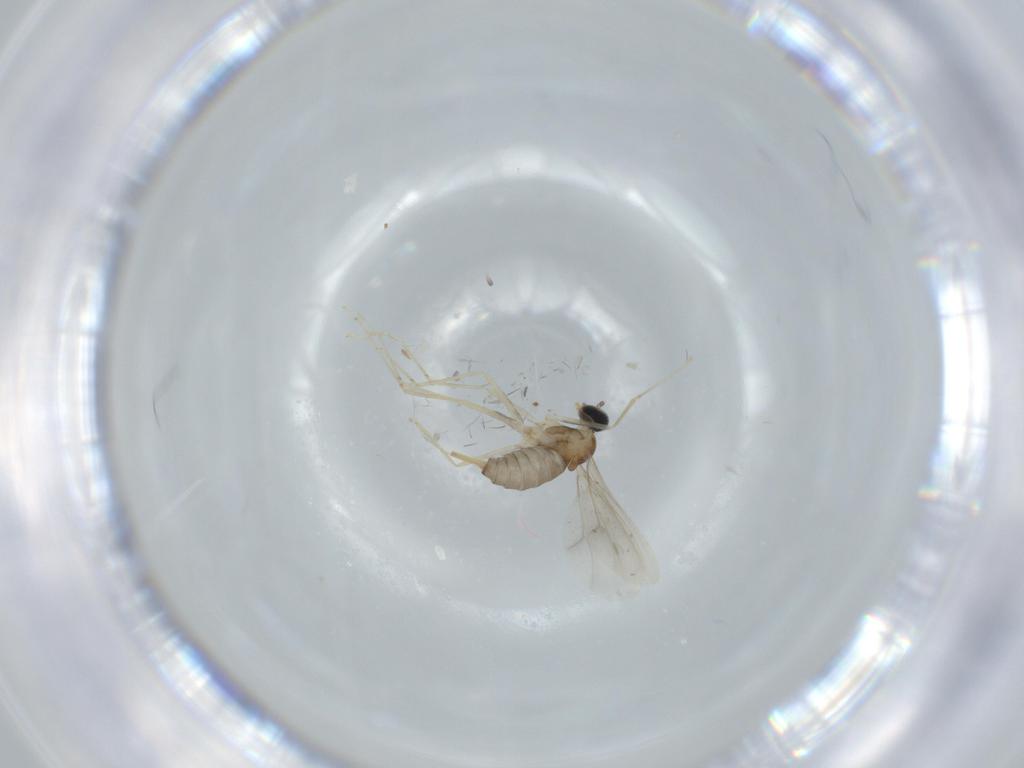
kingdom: Animalia
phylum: Arthropoda
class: Insecta
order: Diptera
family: Cecidomyiidae
